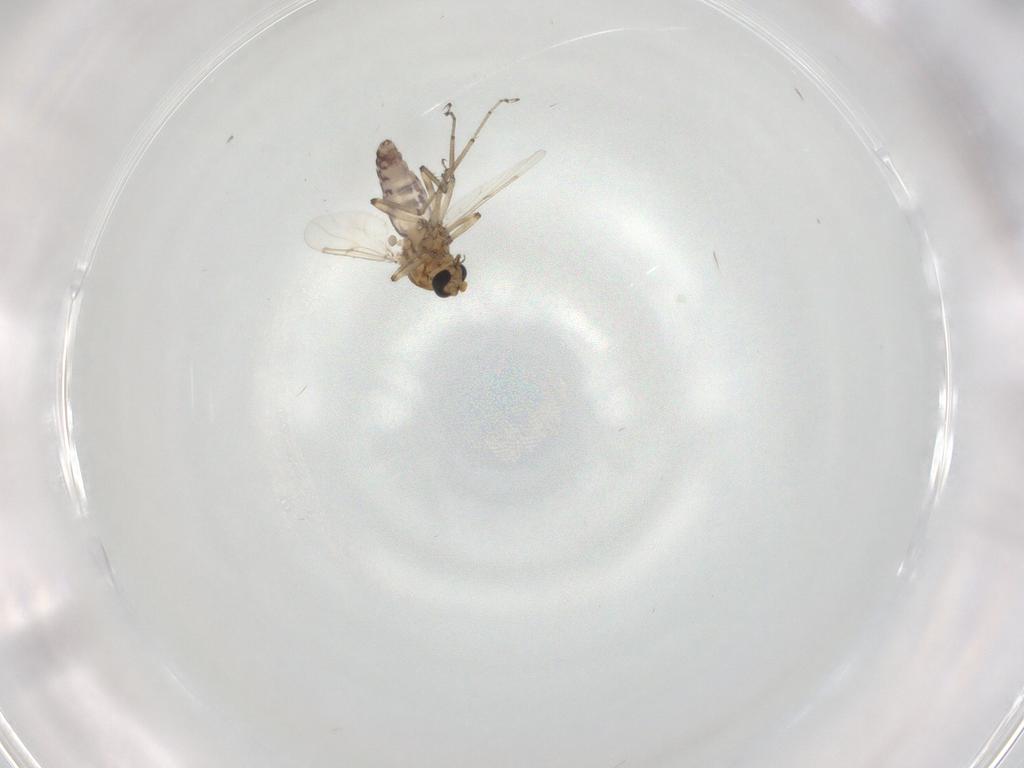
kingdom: Animalia
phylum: Arthropoda
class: Insecta
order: Diptera
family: Ceratopogonidae
